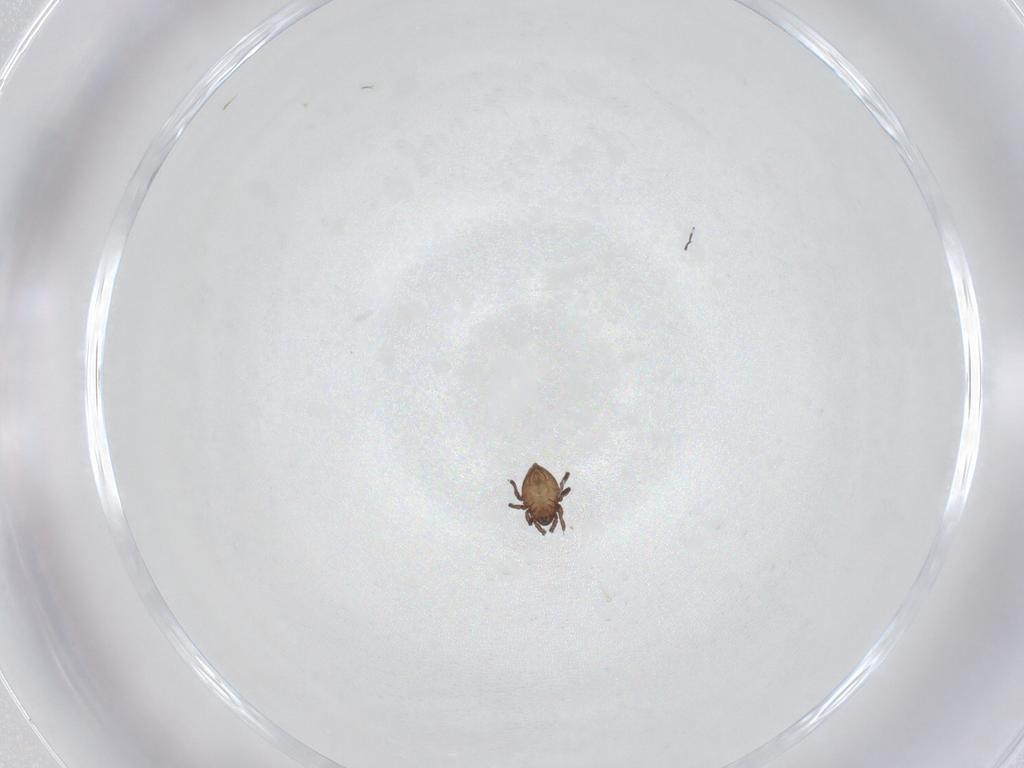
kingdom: Animalia
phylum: Arthropoda
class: Arachnida
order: Sarcoptiformes
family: Neoliodidae
